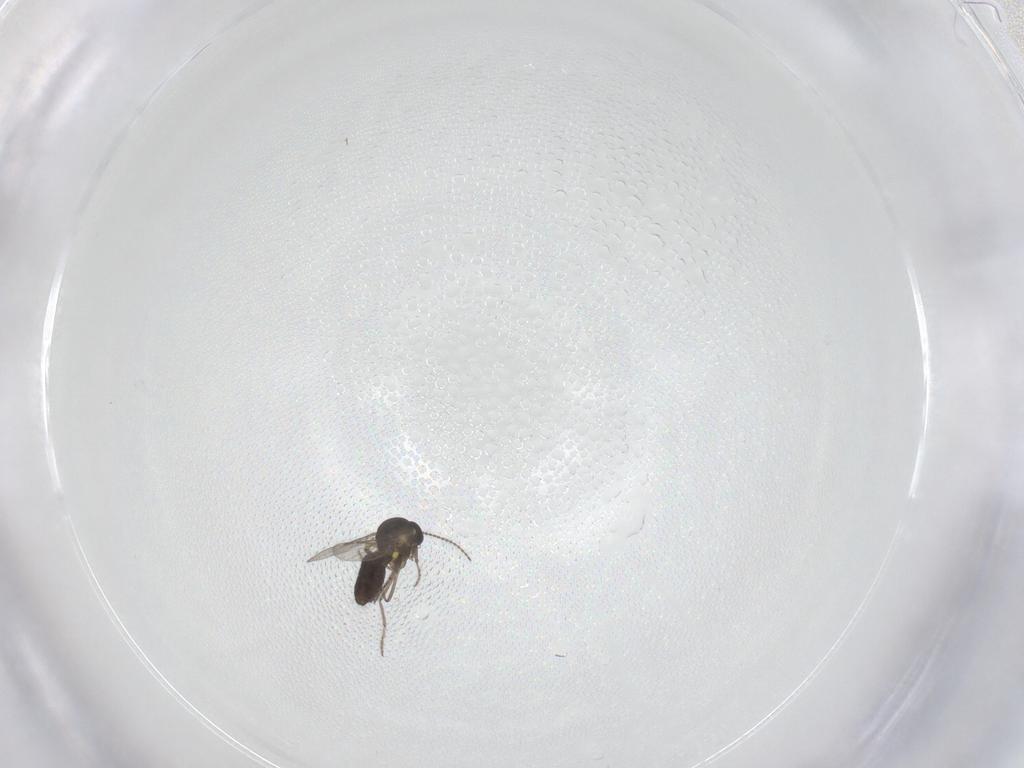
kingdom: Animalia
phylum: Arthropoda
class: Insecta
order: Diptera
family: Ceratopogonidae
